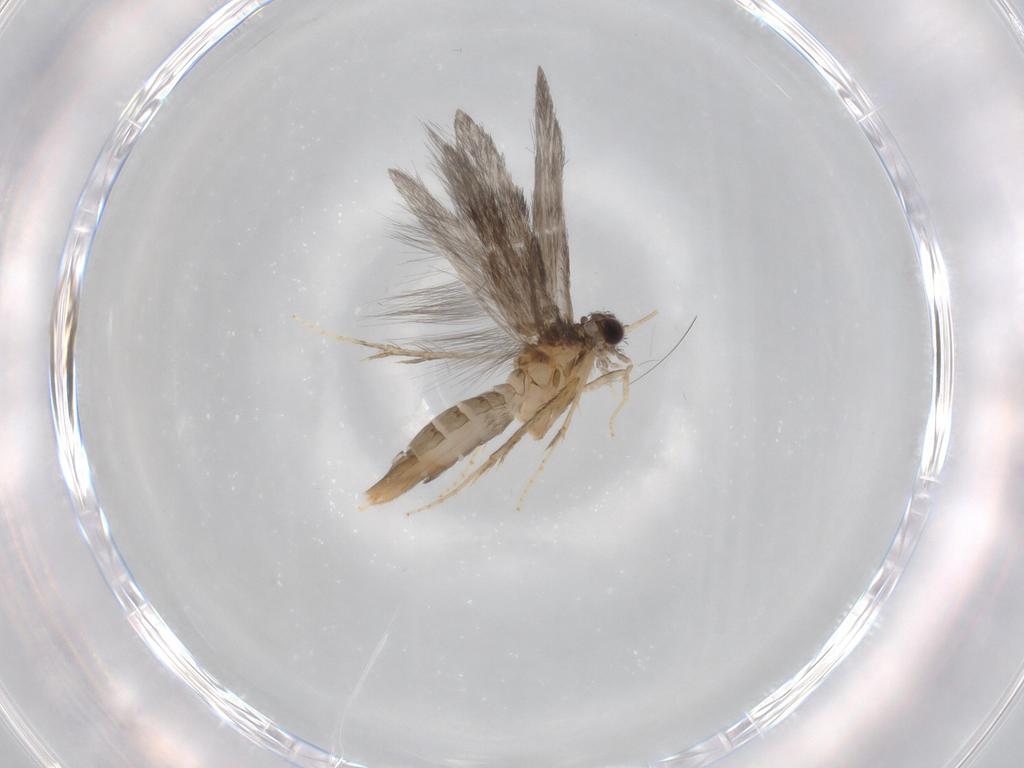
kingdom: Animalia
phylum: Arthropoda
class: Insecta
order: Trichoptera
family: Hydroptilidae
